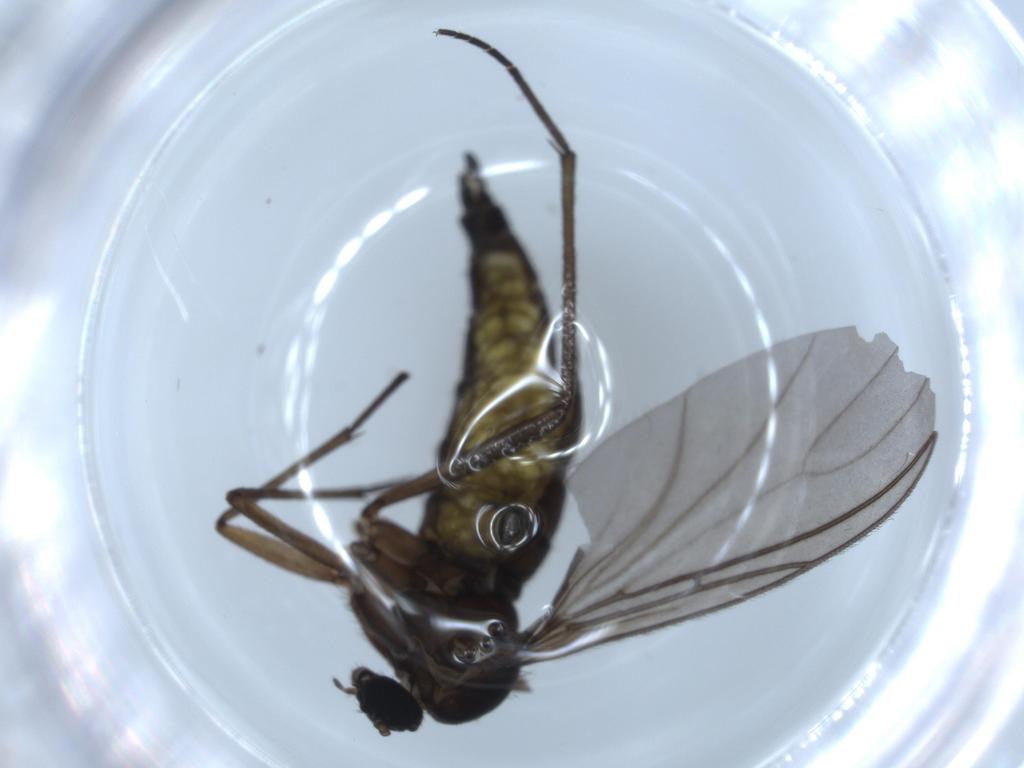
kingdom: Animalia
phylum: Arthropoda
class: Insecta
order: Diptera
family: Sciaridae
